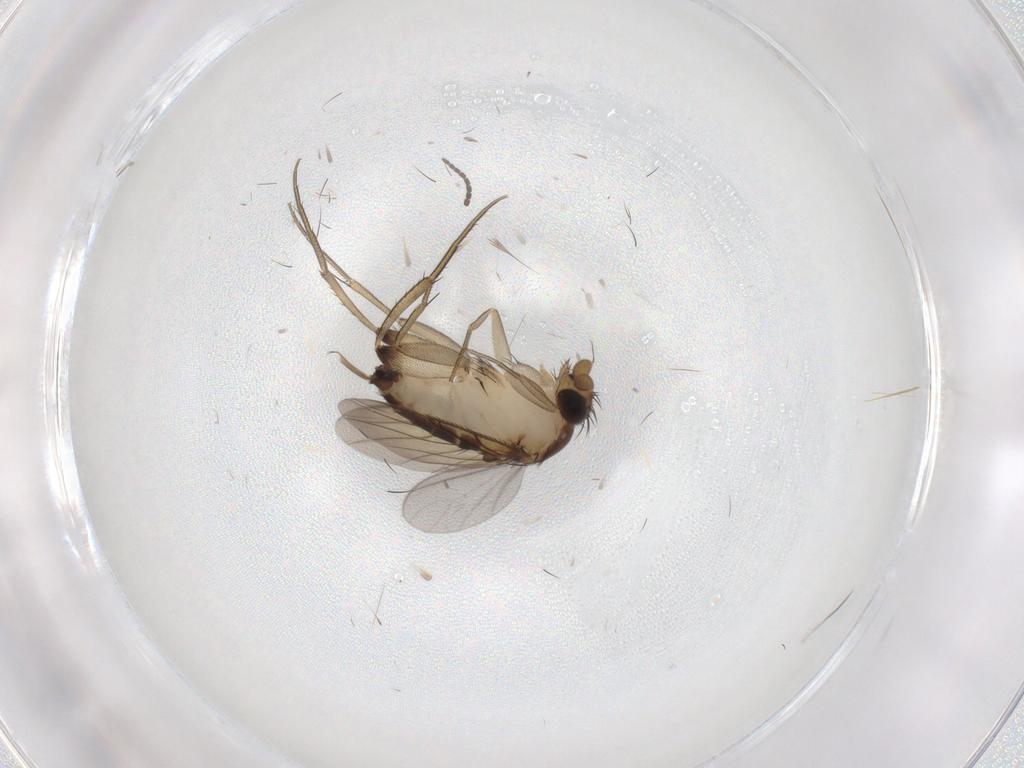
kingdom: Animalia
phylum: Arthropoda
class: Insecta
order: Diptera
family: Phoridae
